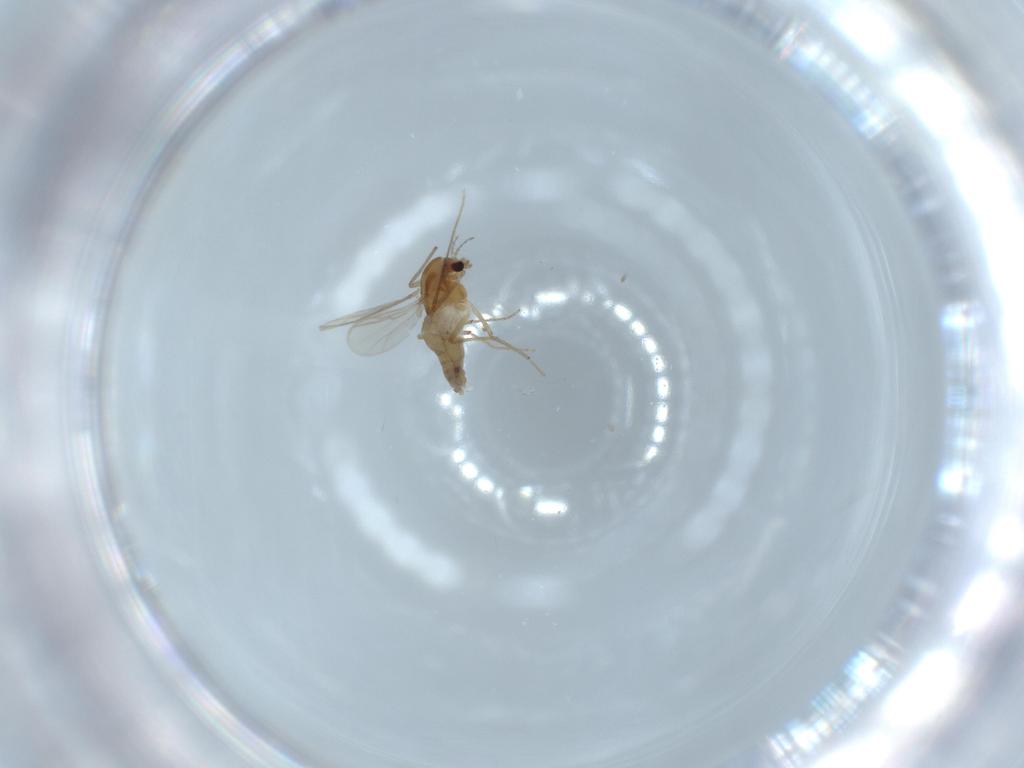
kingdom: Animalia
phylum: Arthropoda
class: Insecta
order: Diptera
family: Chironomidae
